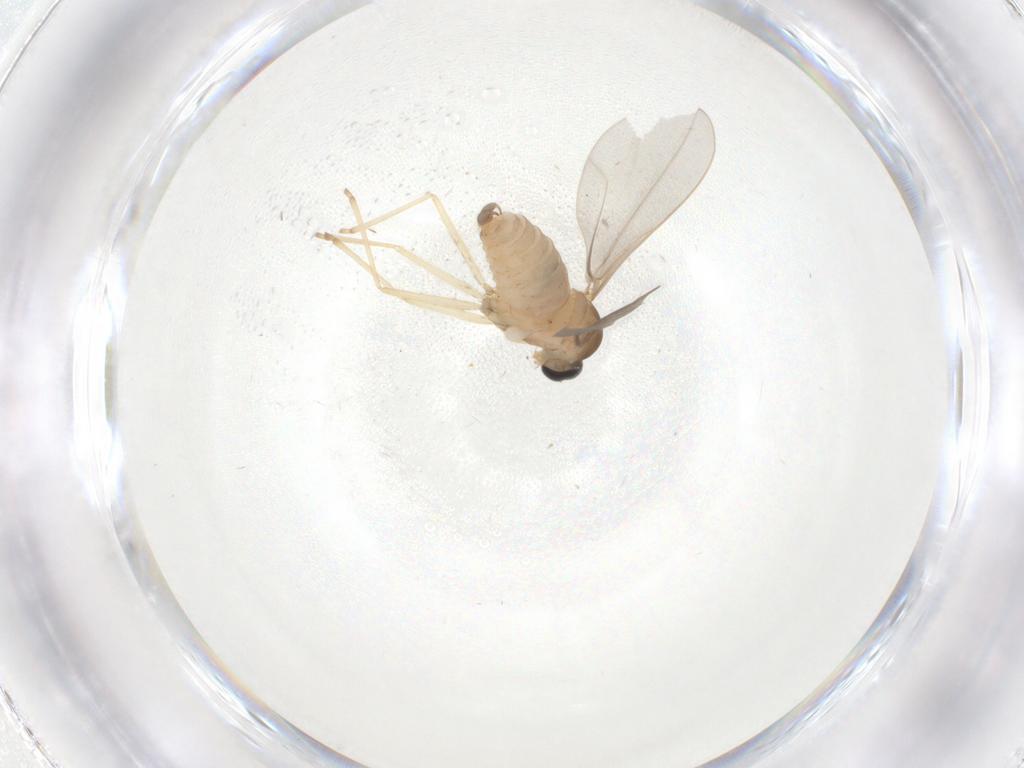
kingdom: Animalia
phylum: Arthropoda
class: Insecta
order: Diptera
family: Cecidomyiidae
